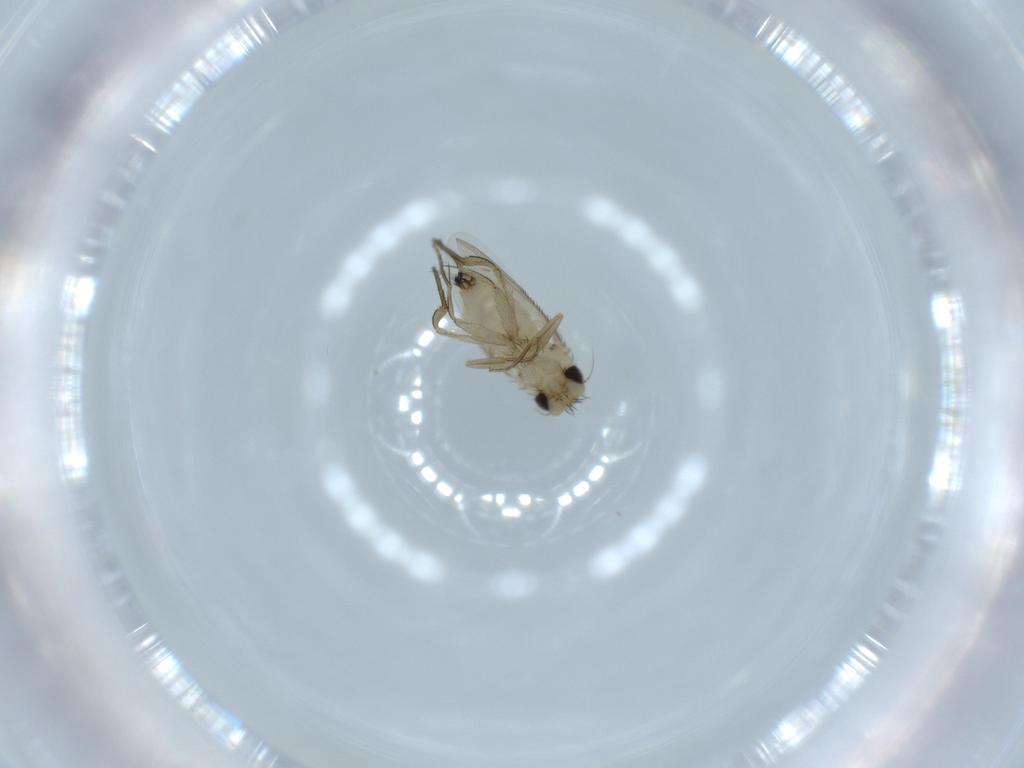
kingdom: Animalia
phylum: Arthropoda
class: Insecta
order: Diptera
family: Phoridae
